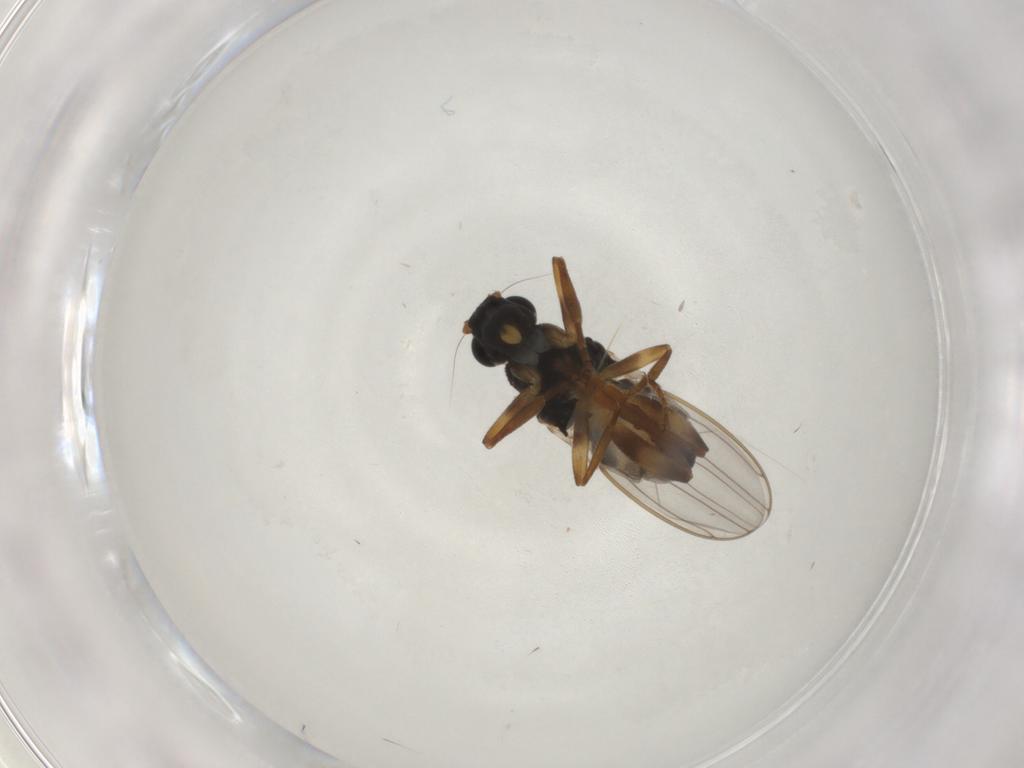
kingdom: Animalia
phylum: Arthropoda
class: Insecta
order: Diptera
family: Sphaeroceridae
